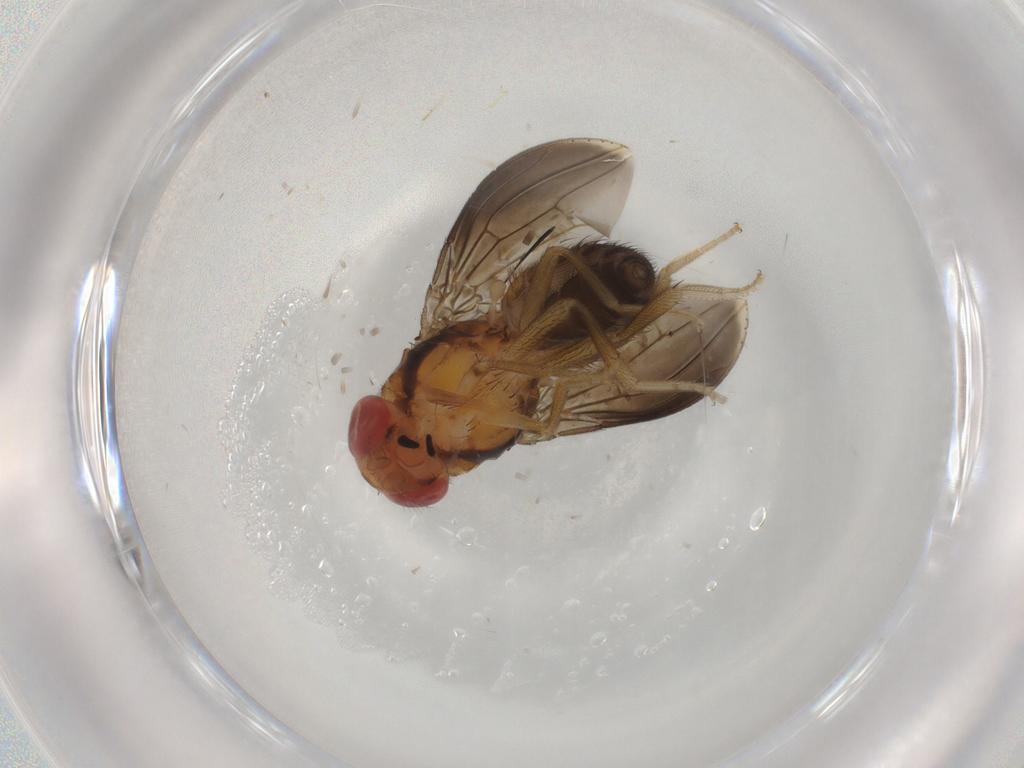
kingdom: Animalia
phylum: Arthropoda
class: Insecta
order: Diptera
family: Drosophilidae
